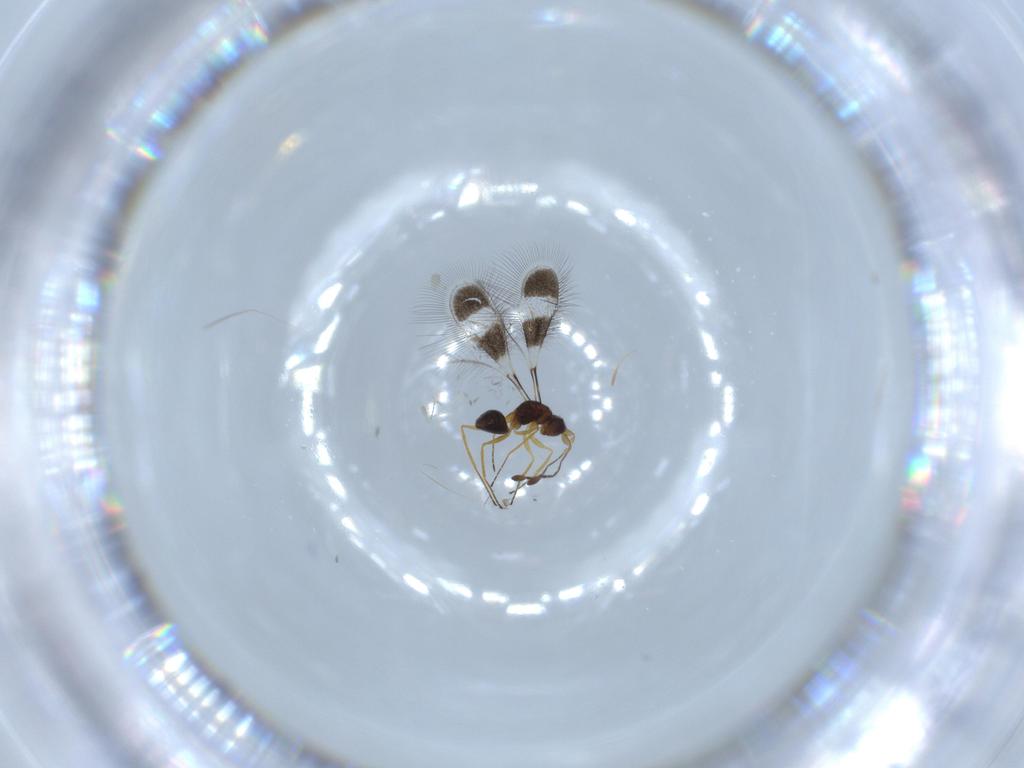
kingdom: Animalia
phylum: Arthropoda
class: Insecta
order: Hymenoptera
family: Mymaridae
